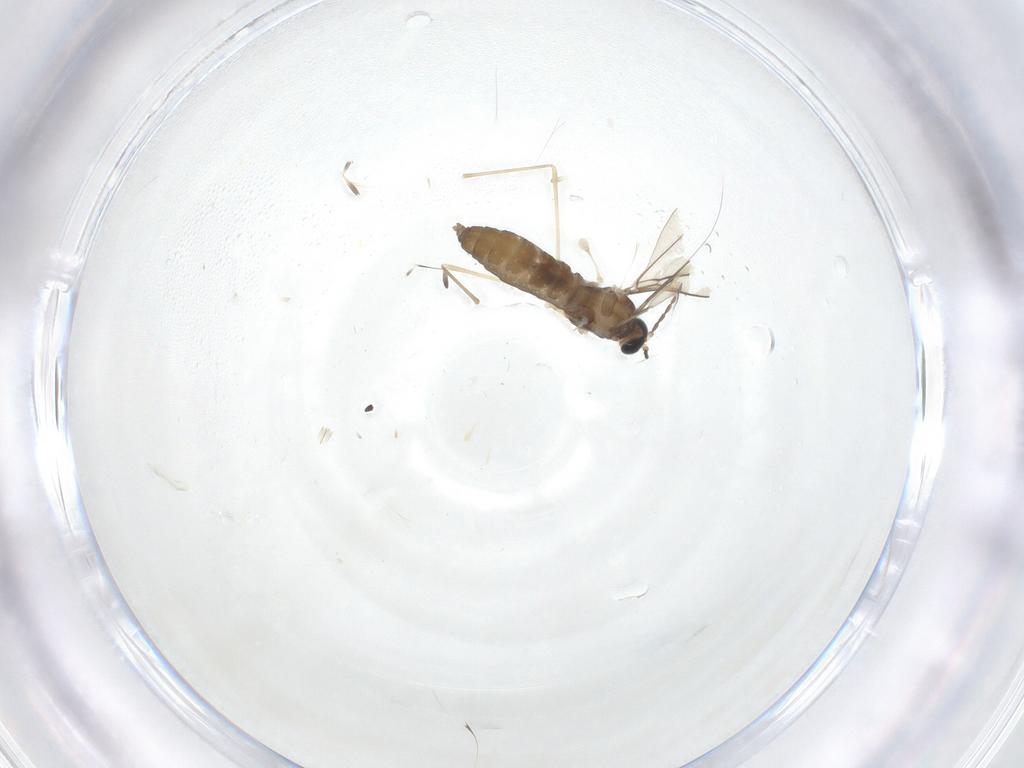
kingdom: Animalia
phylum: Arthropoda
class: Insecta
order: Diptera
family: Cecidomyiidae
